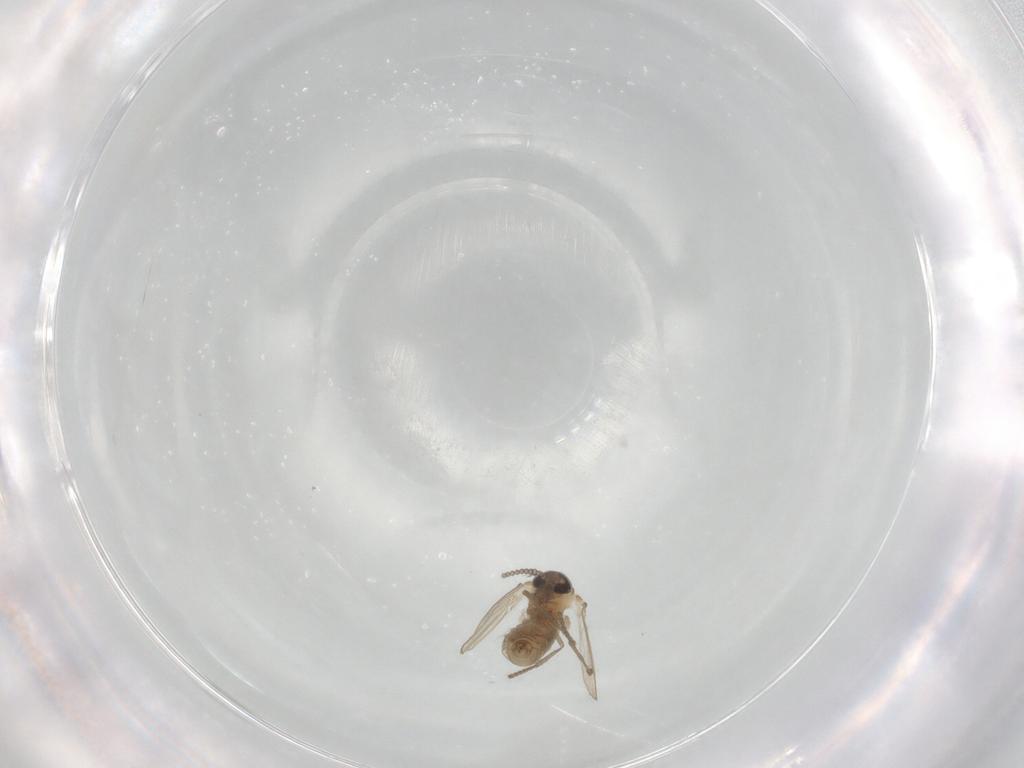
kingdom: Animalia
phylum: Arthropoda
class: Insecta
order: Diptera
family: Psychodidae
